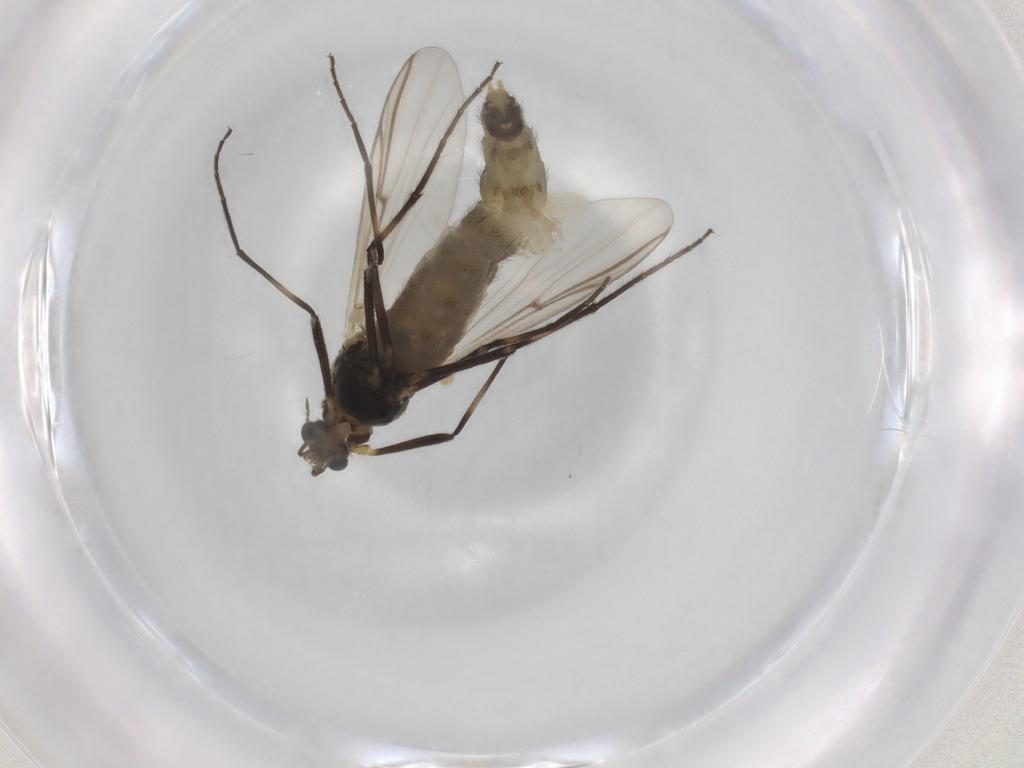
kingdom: Animalia
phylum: Arthropoda
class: Insecta
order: Diptera
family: Chironomidae
